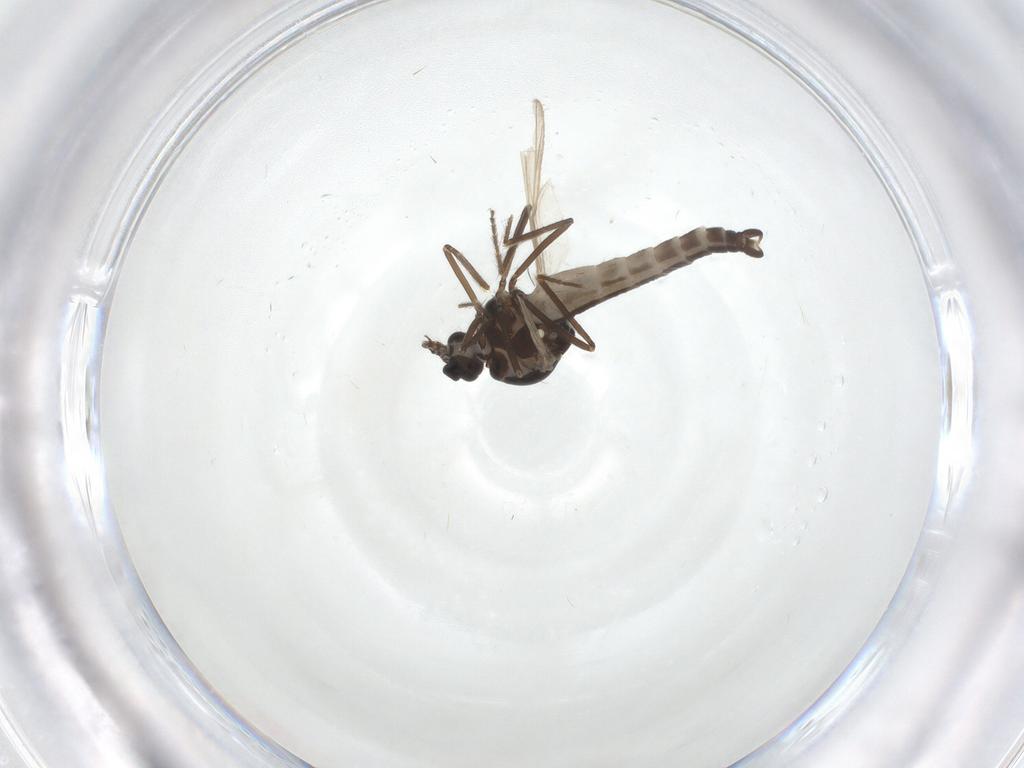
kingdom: Animalia
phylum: Arthropoda
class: Insecta
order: Diptera
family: Ceratopogonidae
